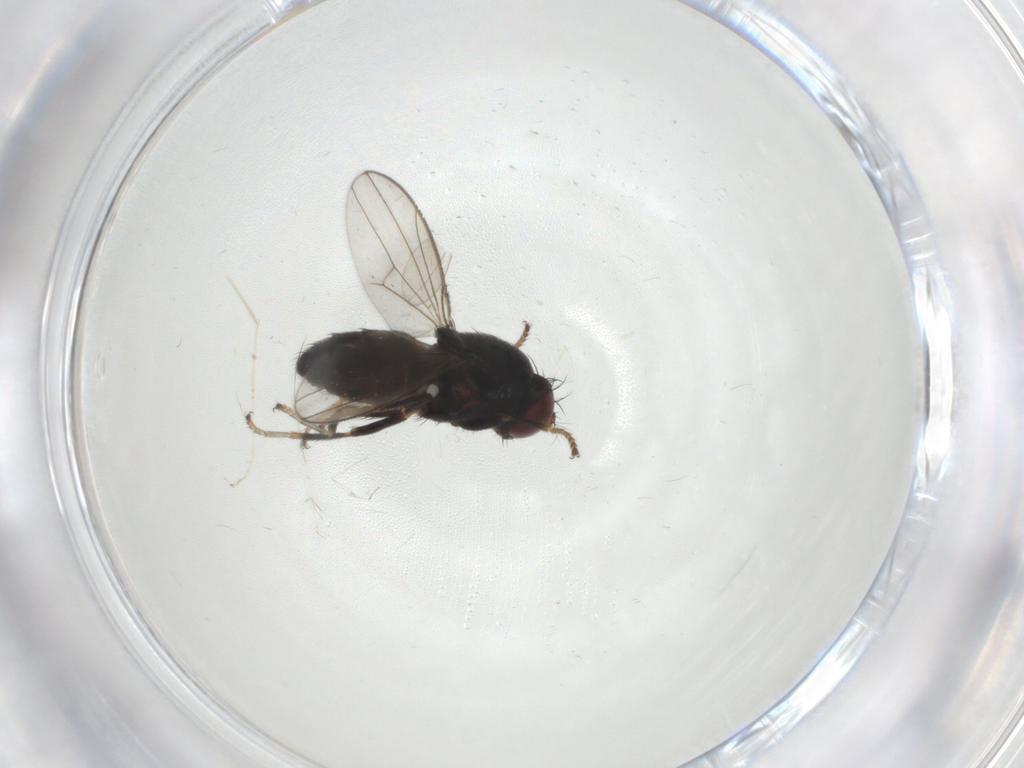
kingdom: Animalia
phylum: Arthropoda
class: Insecta
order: Diptera
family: Ephydridae
